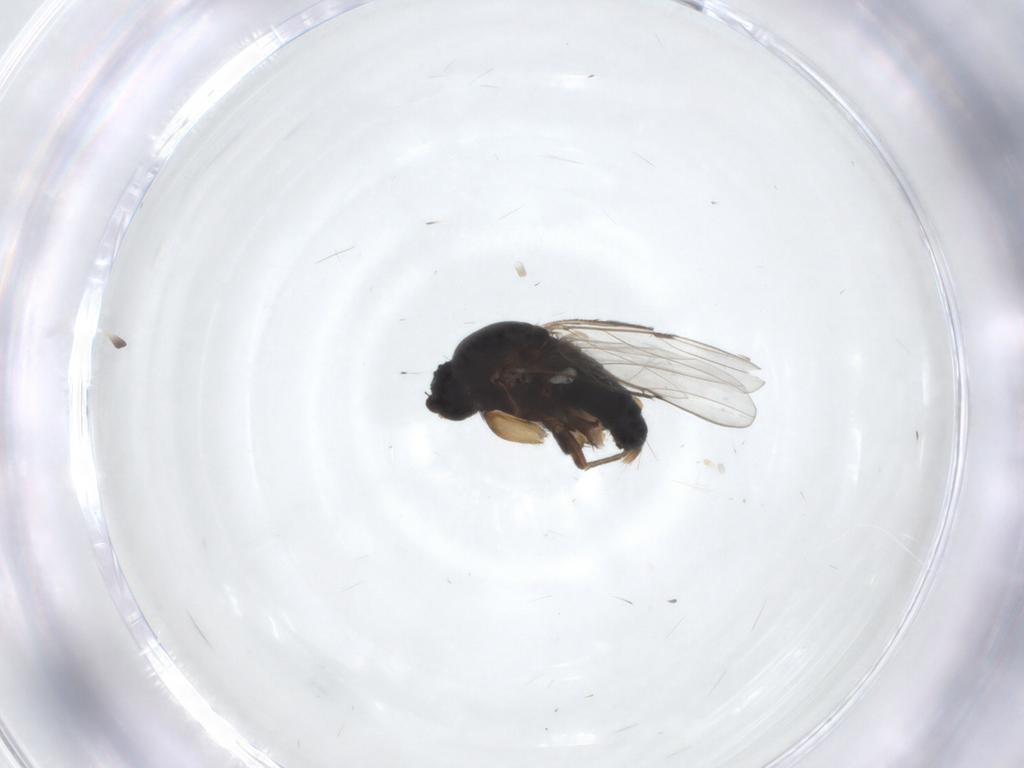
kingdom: Animalia
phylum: Arthropoda
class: Insecta
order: Diptera
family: Phoridae
